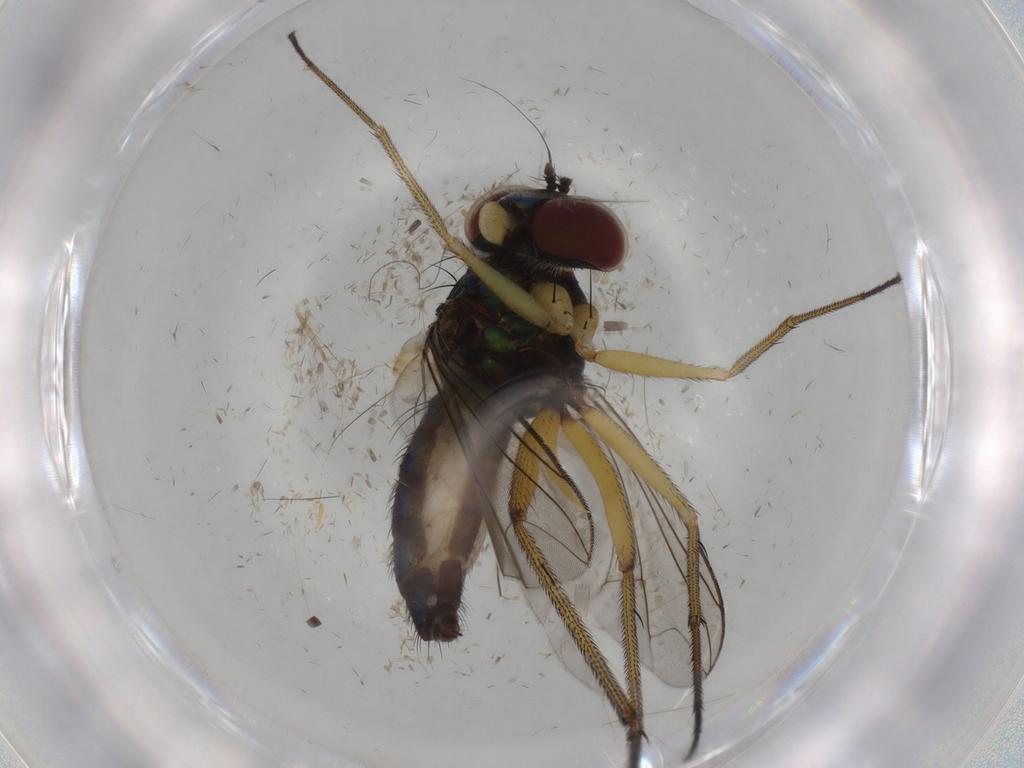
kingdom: Animalia
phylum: Arthropoda
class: Insecta
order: Diptera
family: Dolichopodidae
